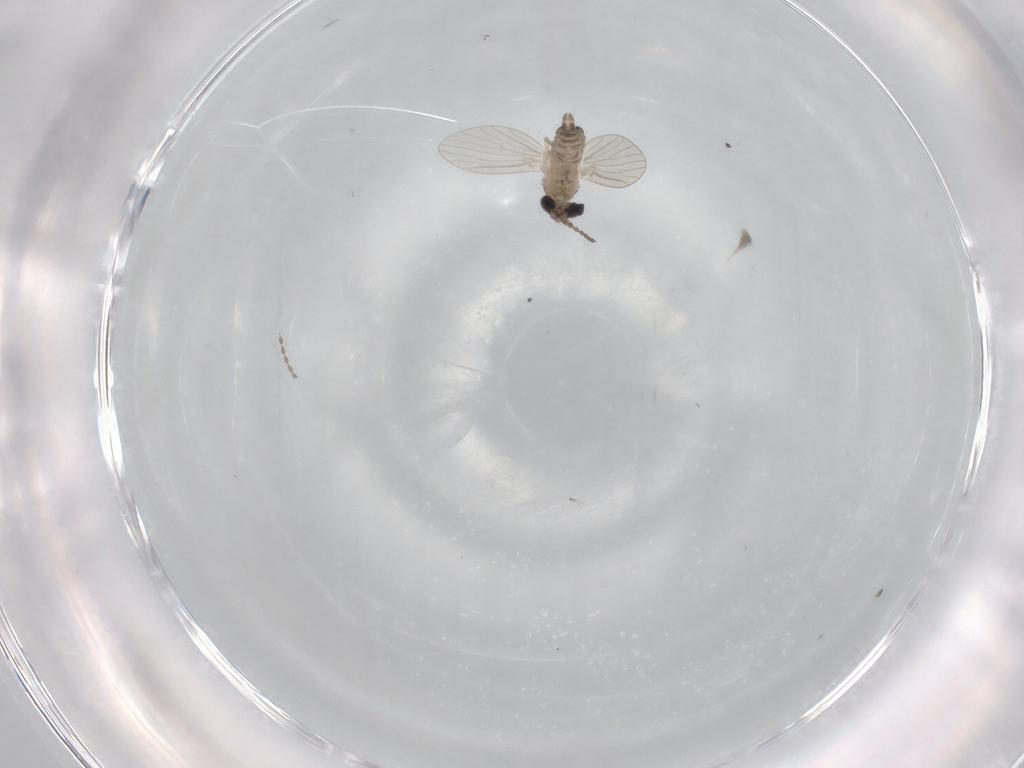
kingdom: Animalia
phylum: Arthropoda
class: Insecta
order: Diptera
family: Psychodidae
